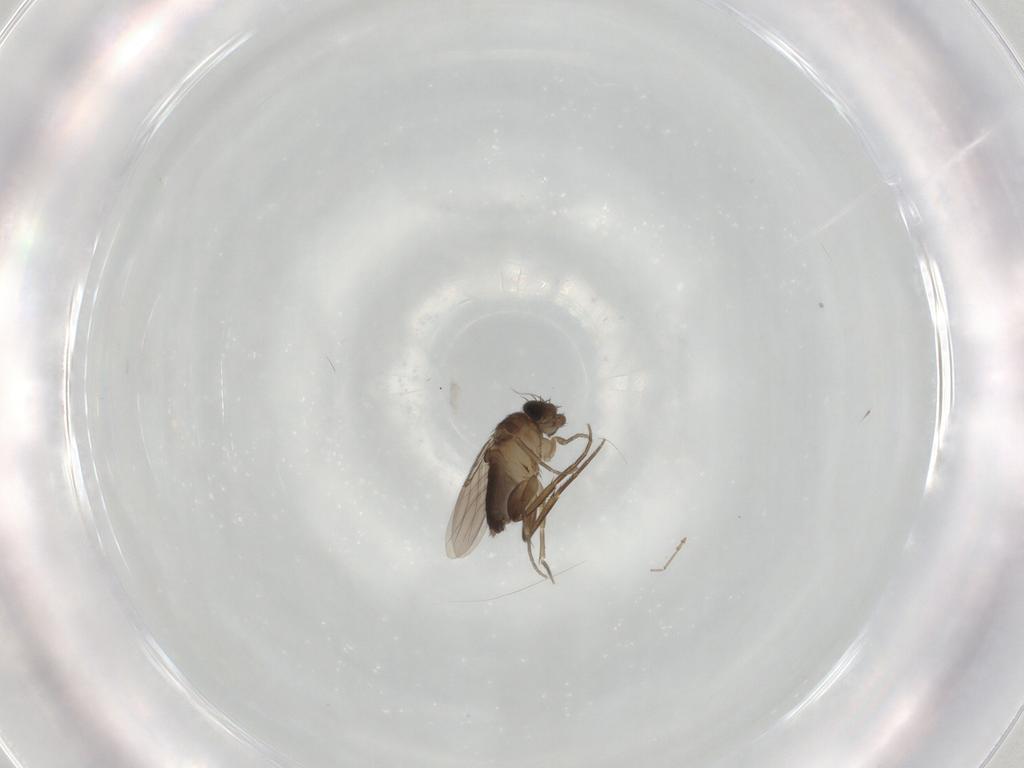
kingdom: Animalia
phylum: Arthropoda
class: Insecta
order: Diptera
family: Phoridae
